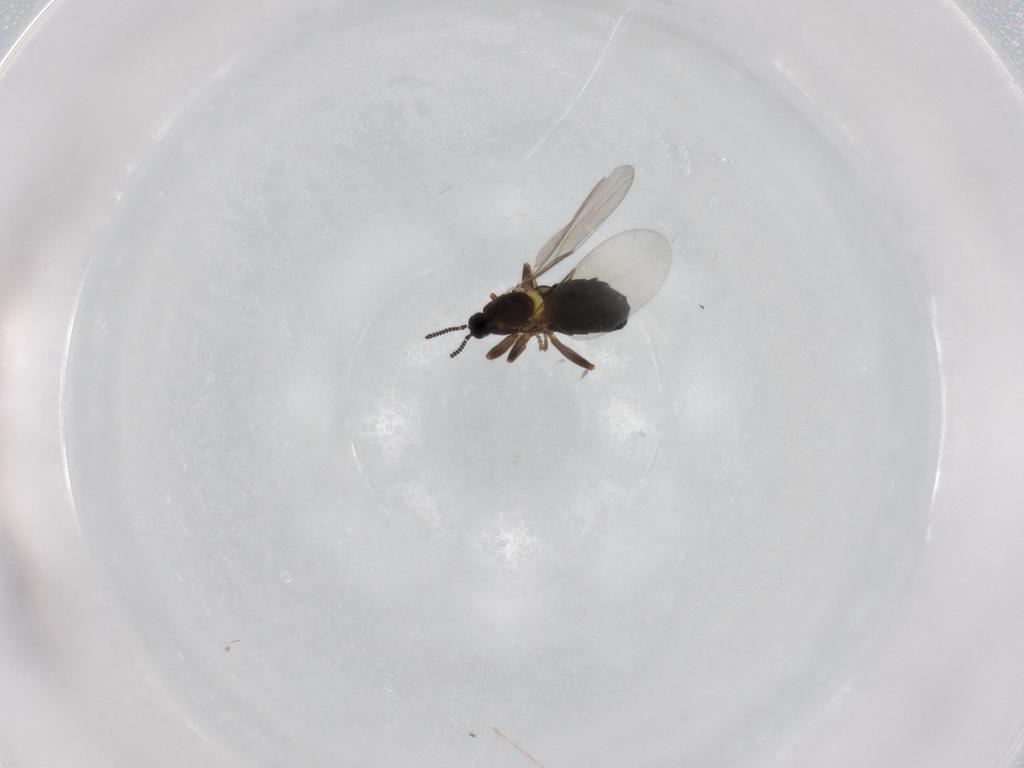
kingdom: Animalia
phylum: Arthropoda
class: Insecta
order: Diptera
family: Scatopsidae
